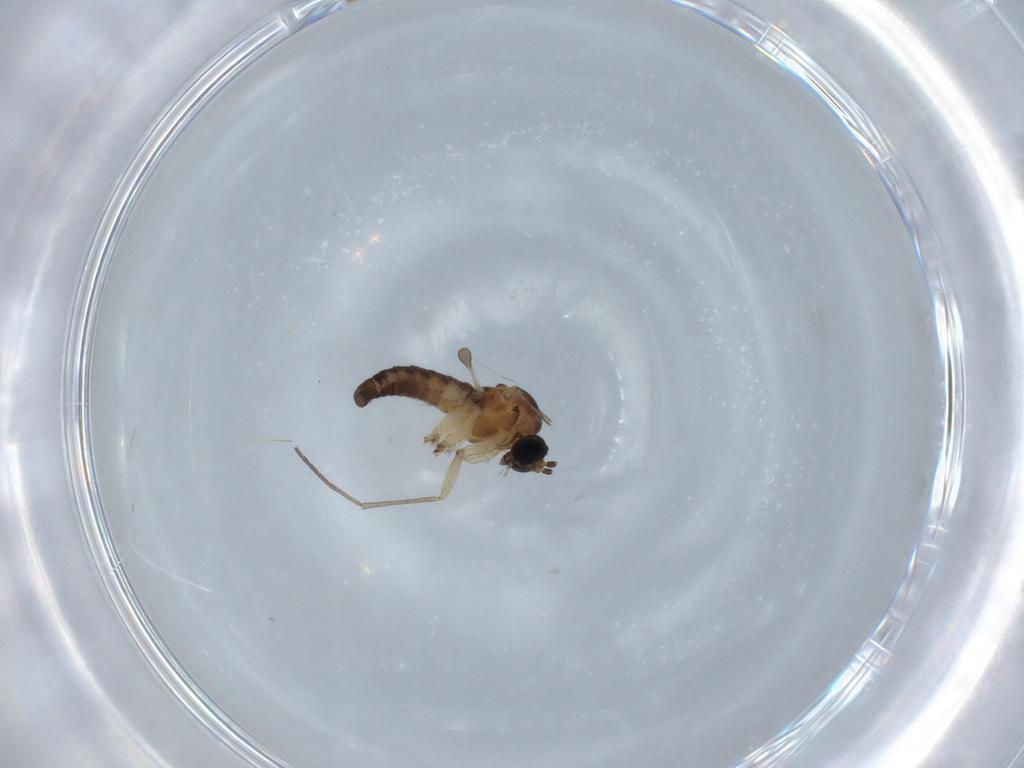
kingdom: Animalia
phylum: Arthropoda
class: Insecta
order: Diptera
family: Sciaridae
